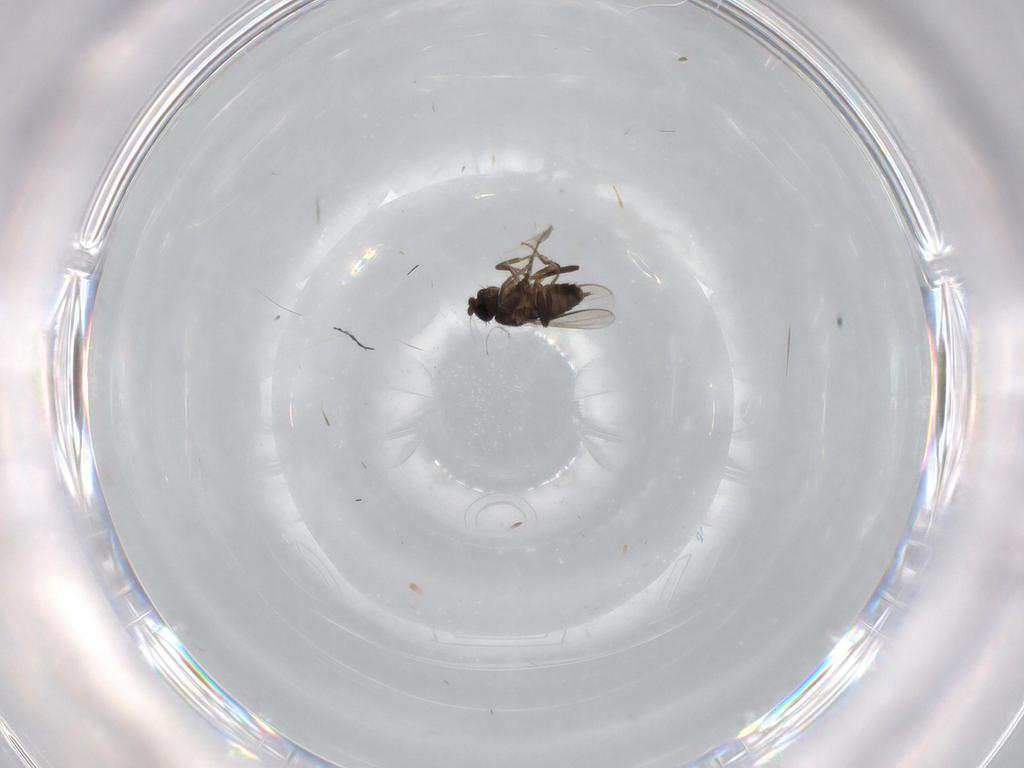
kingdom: Animalia
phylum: Arthropoda
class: Insecta
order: Diptera
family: Sphaeroceridae
